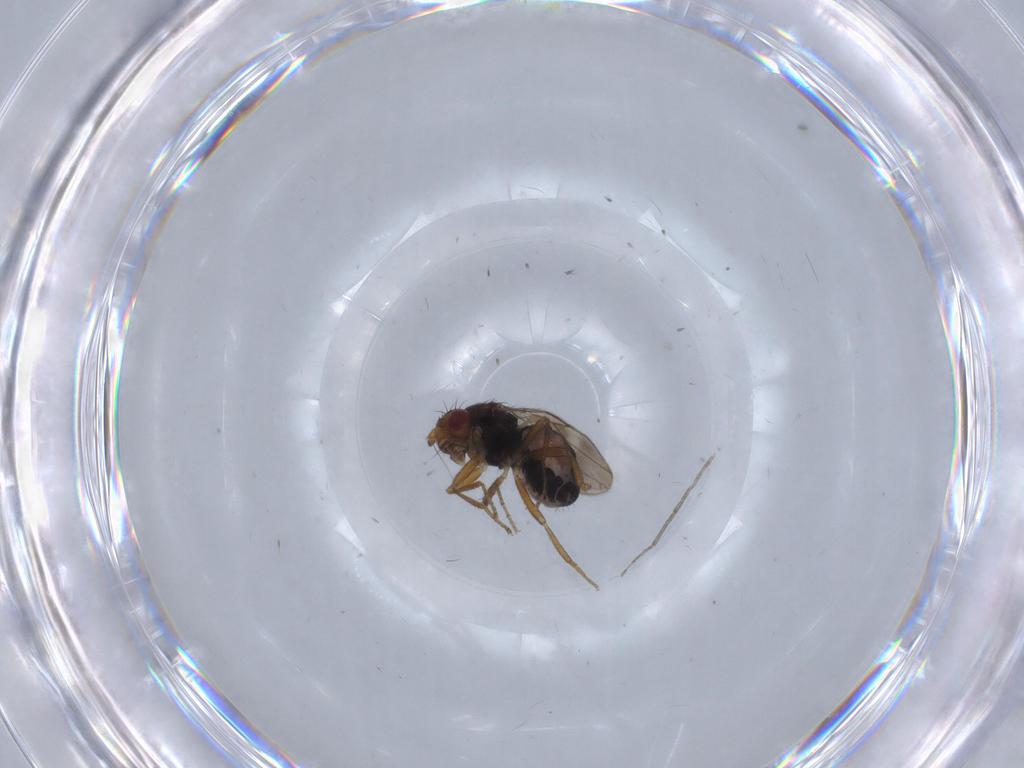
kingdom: Animalia
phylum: Arthropoda
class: Insecta
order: Diptera
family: Sphaeroceridae
